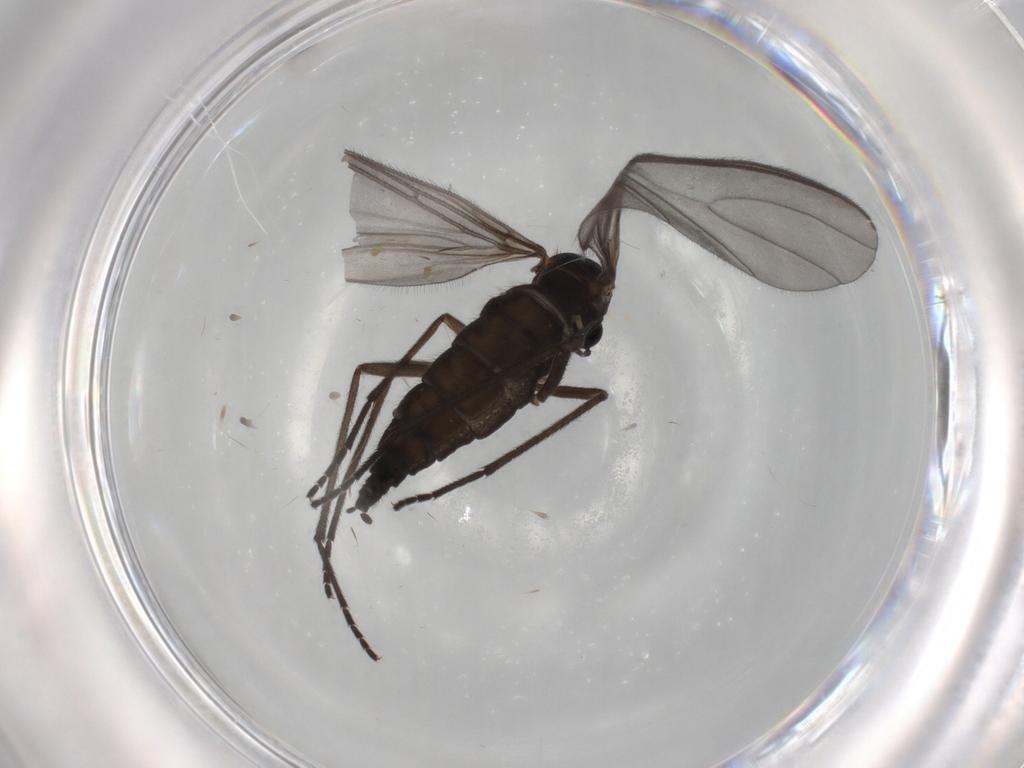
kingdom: Animalia
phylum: Arthropoda
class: Insecta
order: Diptera
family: Sciaridae
